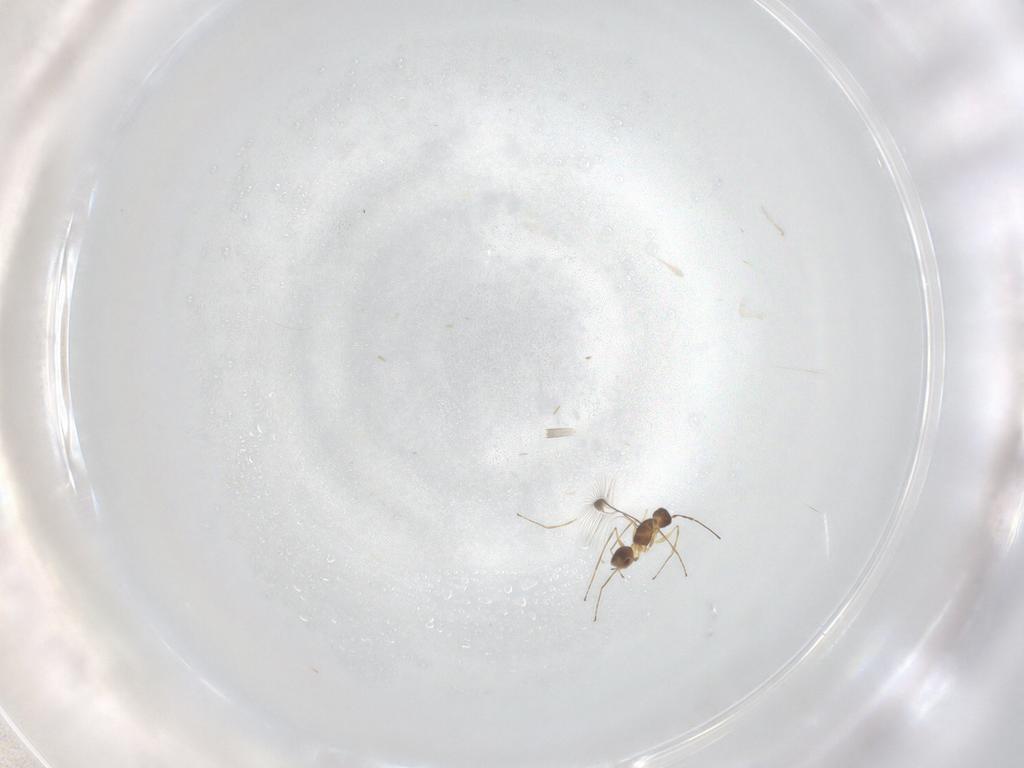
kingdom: Animalia
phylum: Arthropoda
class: Insecta
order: Hymenoptera
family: Mymaridae
